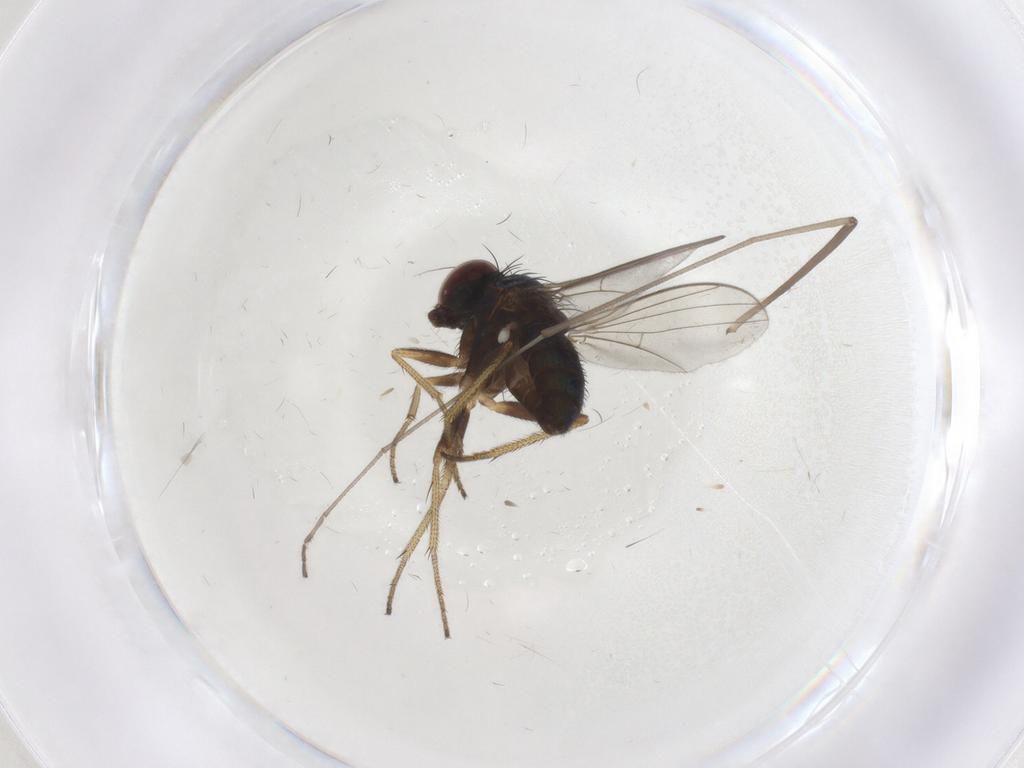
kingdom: Animalia
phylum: Arthropoda
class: Insecta
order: Diptera
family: Limoniidae
